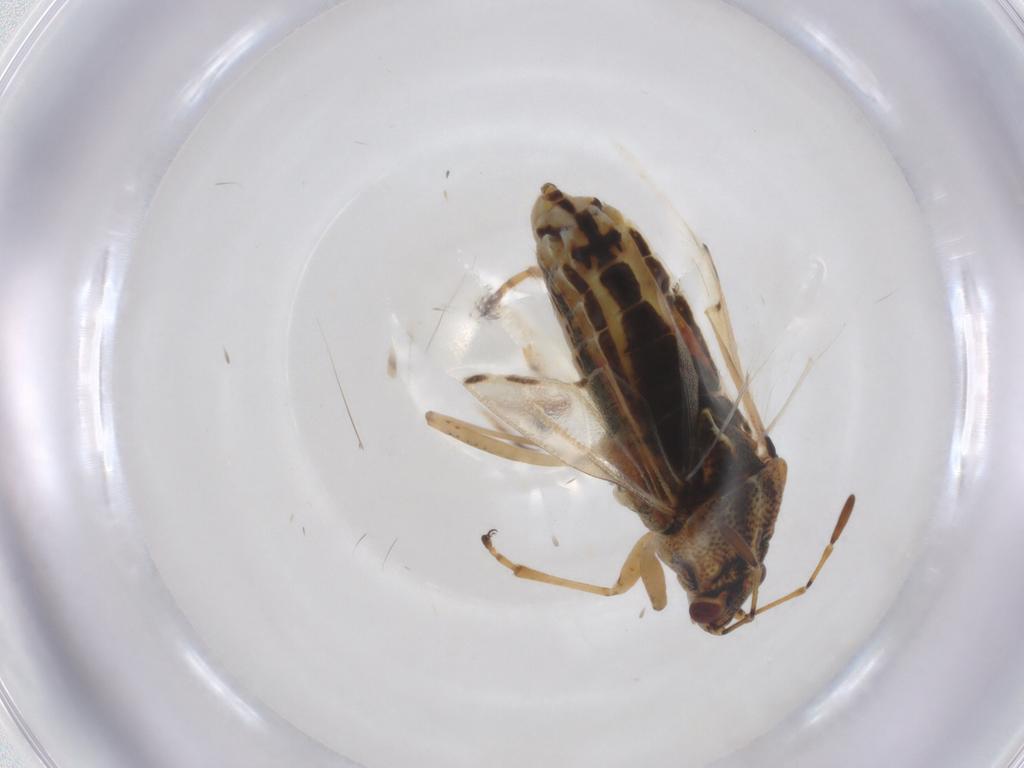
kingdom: Animalia
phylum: Arthropoda
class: Insecta
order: Hemiptera
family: Lygaeidae
